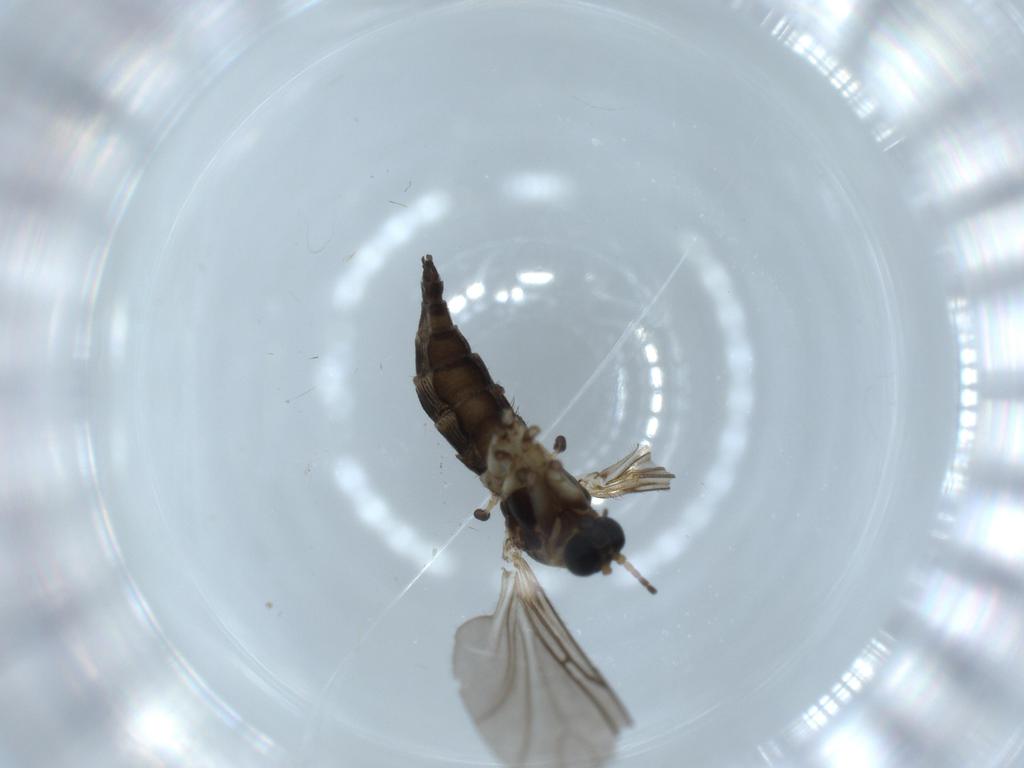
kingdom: Animalia
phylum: Arthropoda
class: Insecta
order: Diptera
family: Sciaridae
